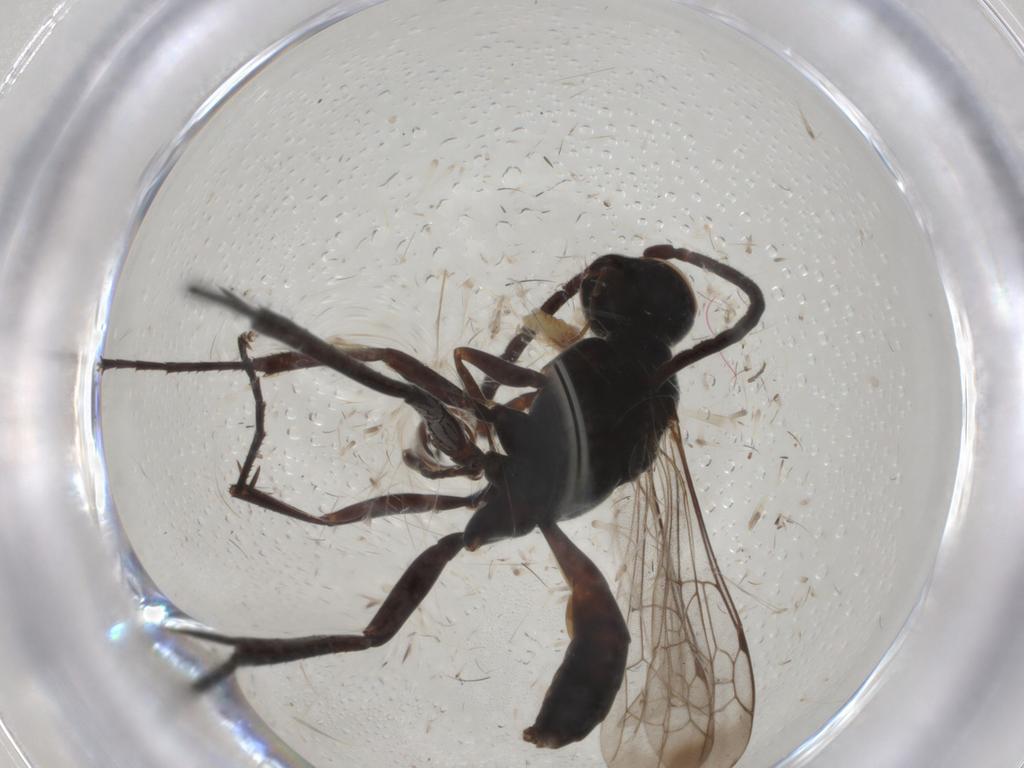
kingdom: Animalia
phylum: Arthropoda
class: Insecta
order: Hymenoptera
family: Pompilidae
